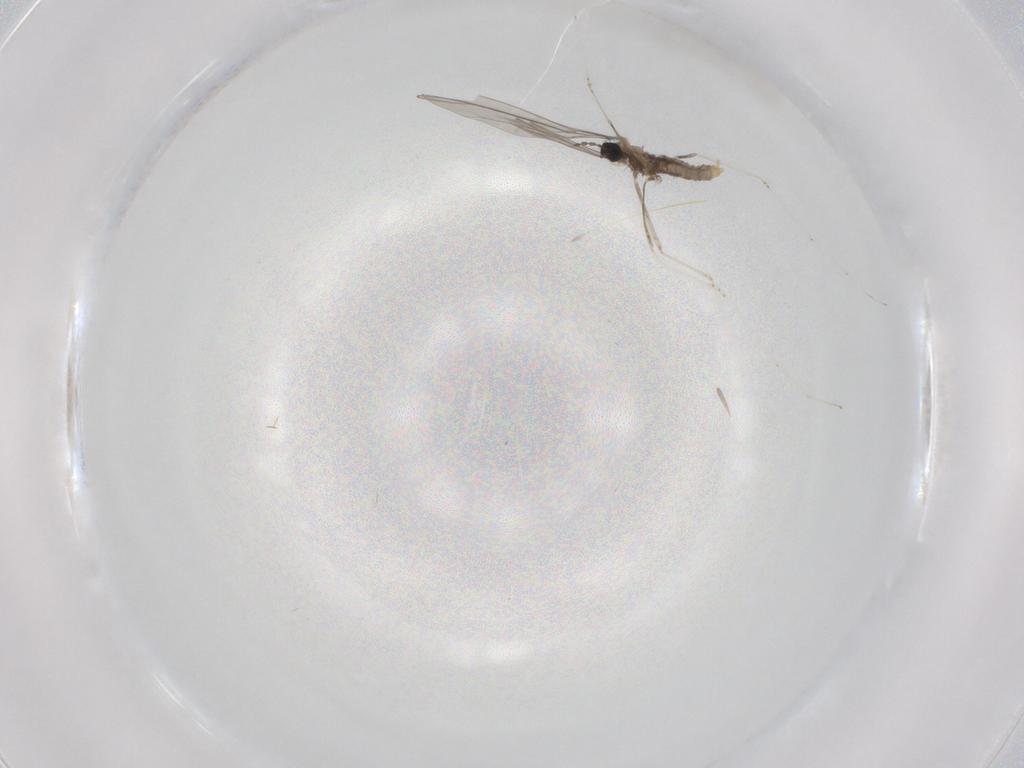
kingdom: Animalia
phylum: Arthropoda
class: Insecta
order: Diptera
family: Cecidomyiidae
